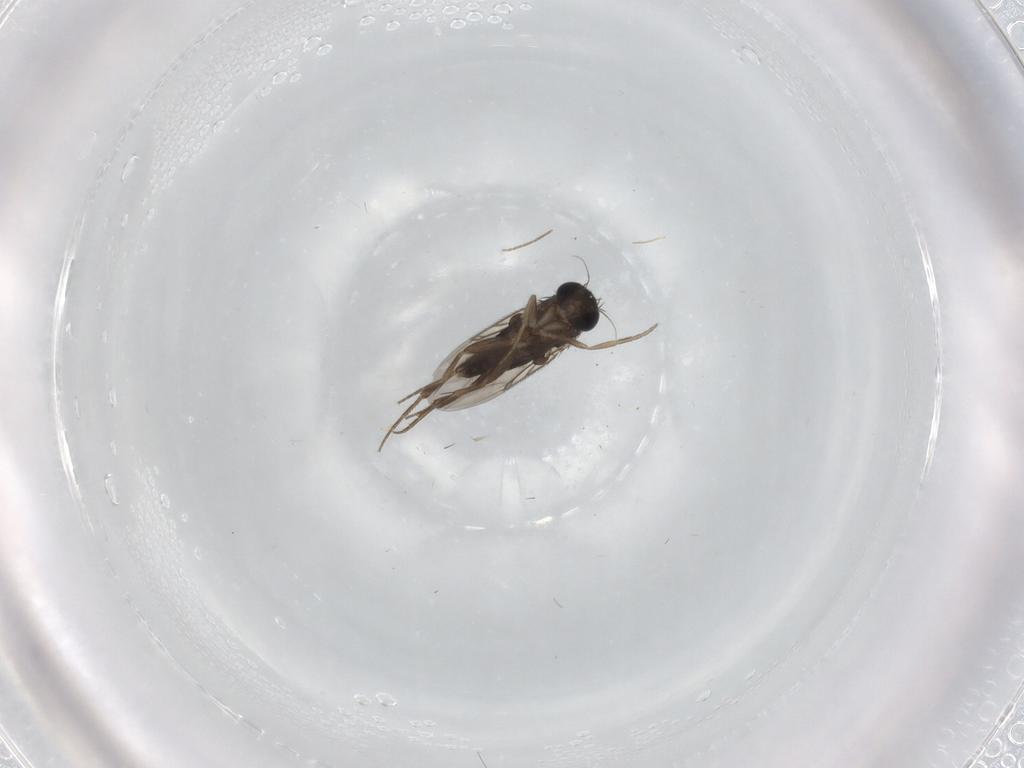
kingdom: Animalia
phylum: Arthropoda
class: Insecta
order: Diptera
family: Phoridae
